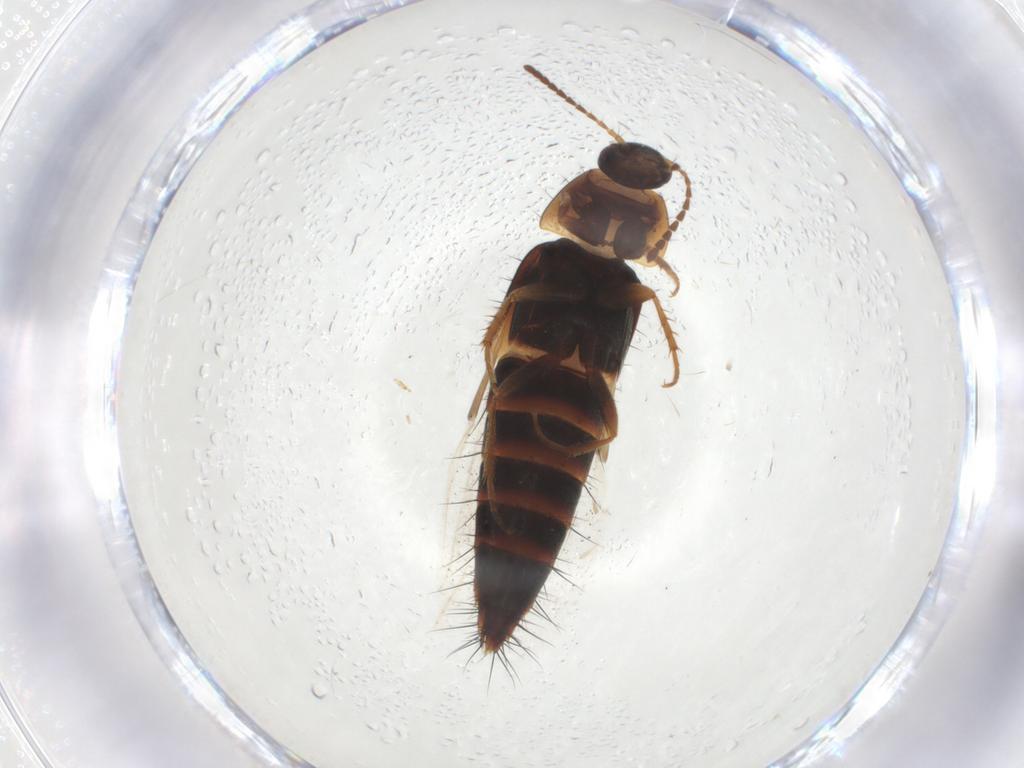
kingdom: Animalia
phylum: Arthropoda
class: Insecta
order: Coleoptera
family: Staphylinidae
